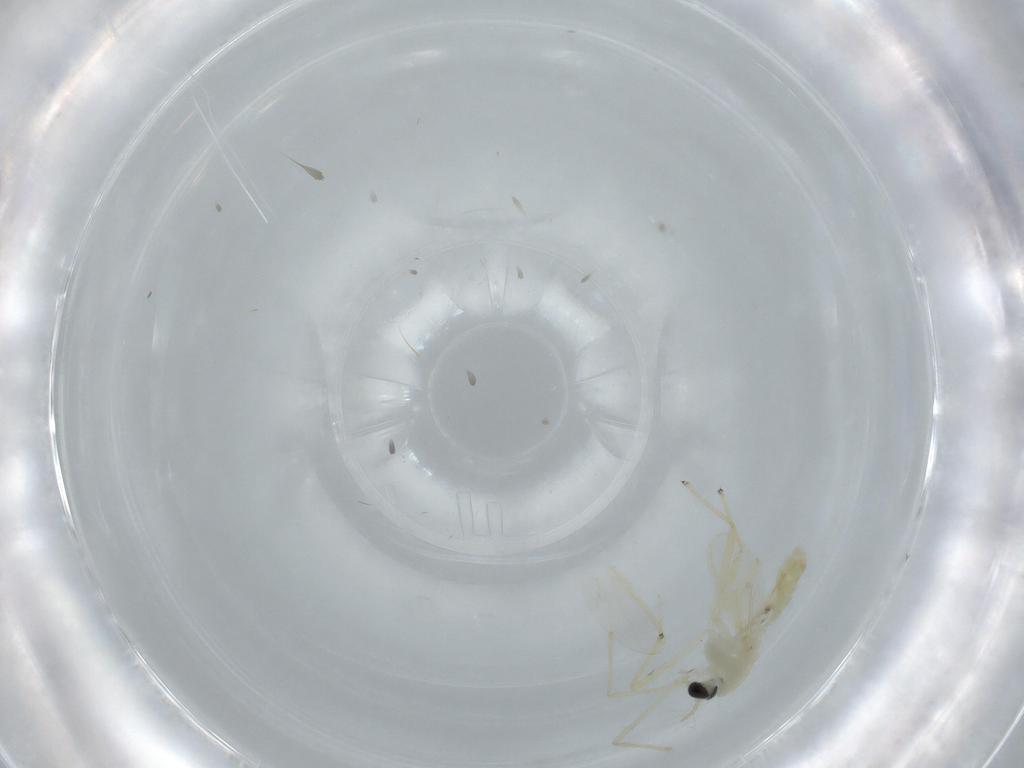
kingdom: Animalia
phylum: Arthropoda
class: Insecta
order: Diptera
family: Chironomidae
